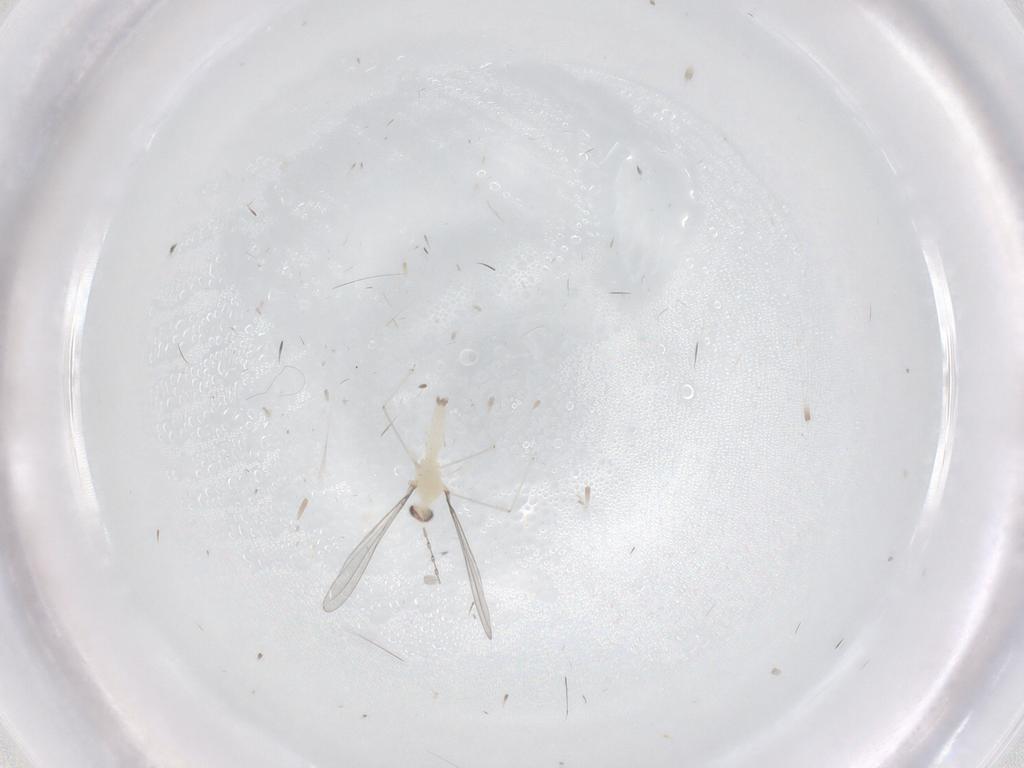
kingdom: Animalia
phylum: Arthropoda
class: Insecta
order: Diptera
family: Cecidomyiidae
